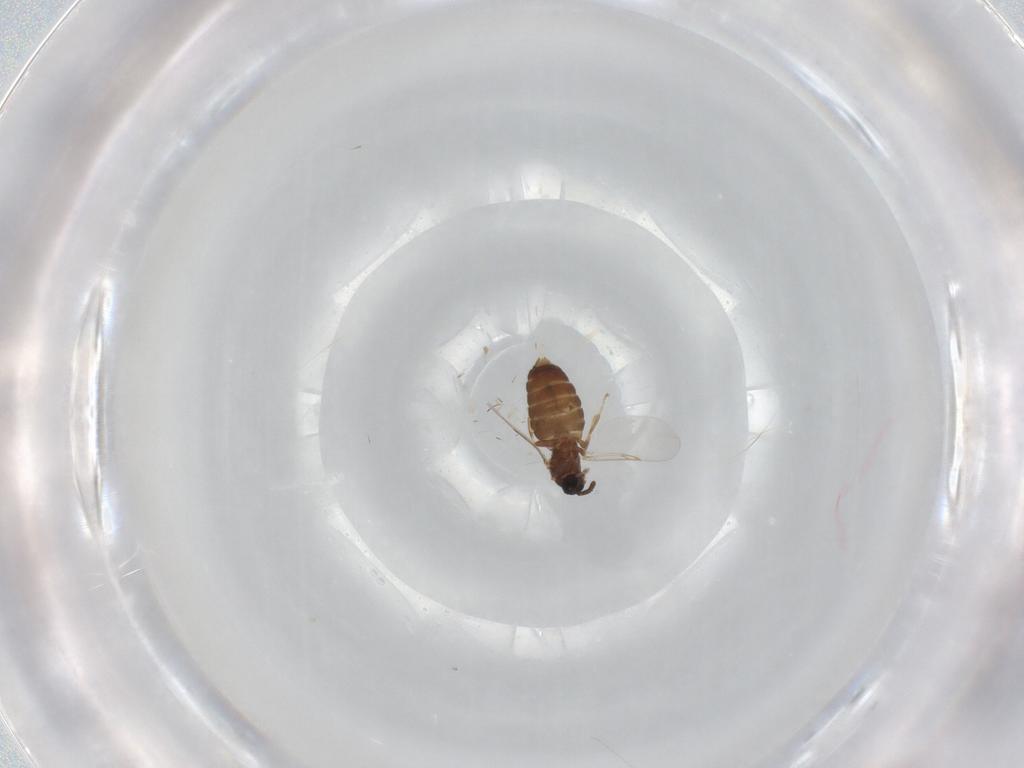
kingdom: Animalia
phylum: Arthropoda
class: Insecta
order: Diptera
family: Scatopsidae
